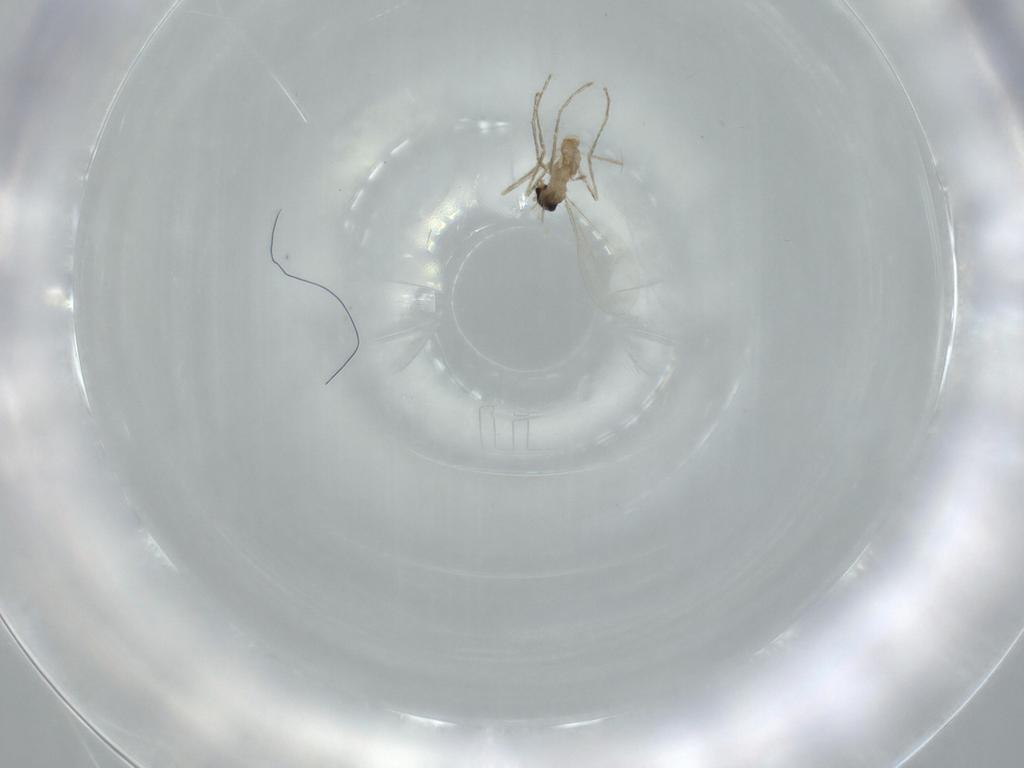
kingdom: Animalia
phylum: Arthropoda
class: Insecta
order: Diptera
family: Cecidomyiidae
